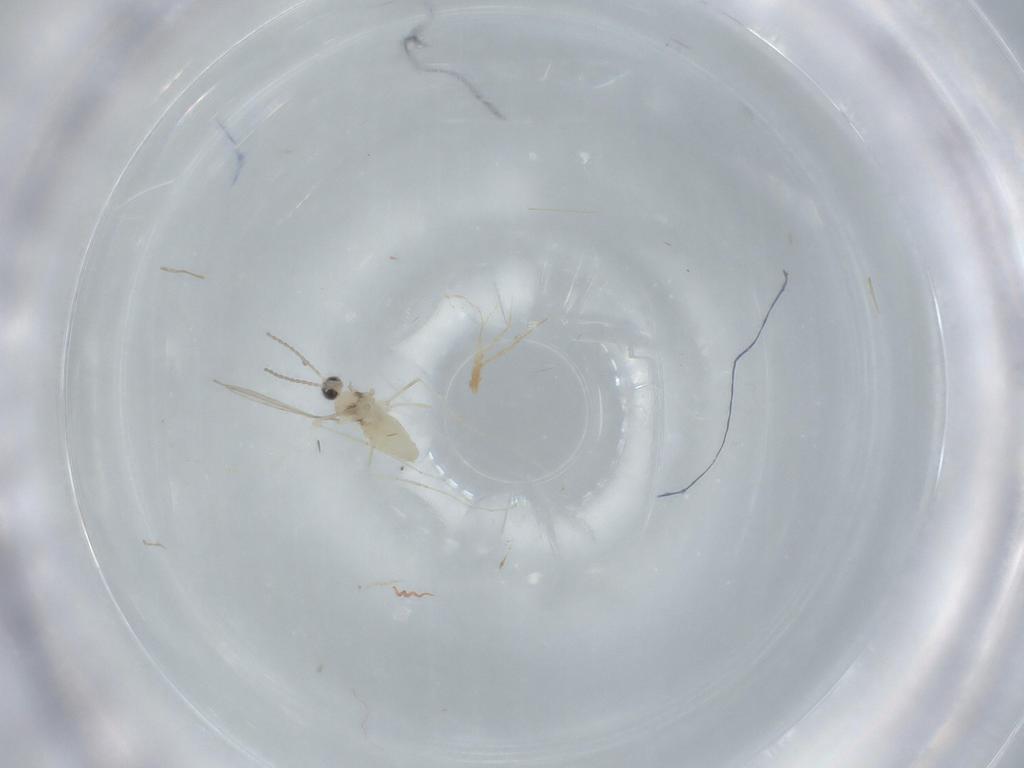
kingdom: Animalia
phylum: Arthropoda
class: Insecta
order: Diptera
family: Cecidomyiidae
